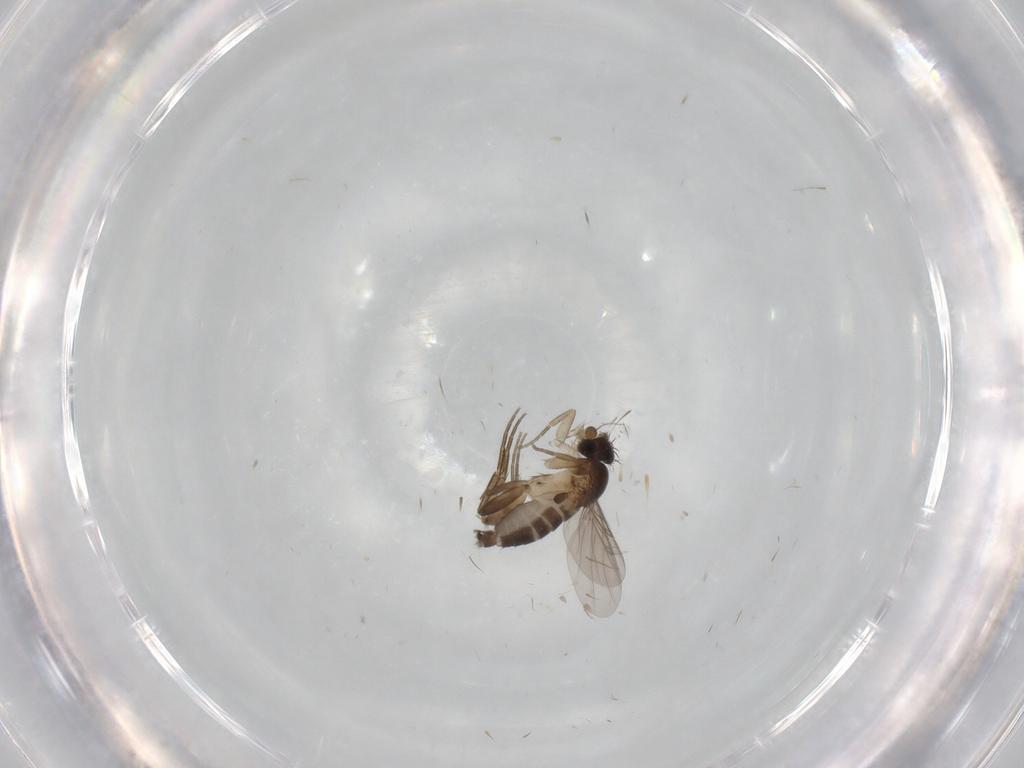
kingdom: Animalia
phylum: Arthropoda
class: Insecta
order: Diptera
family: Phoridae
